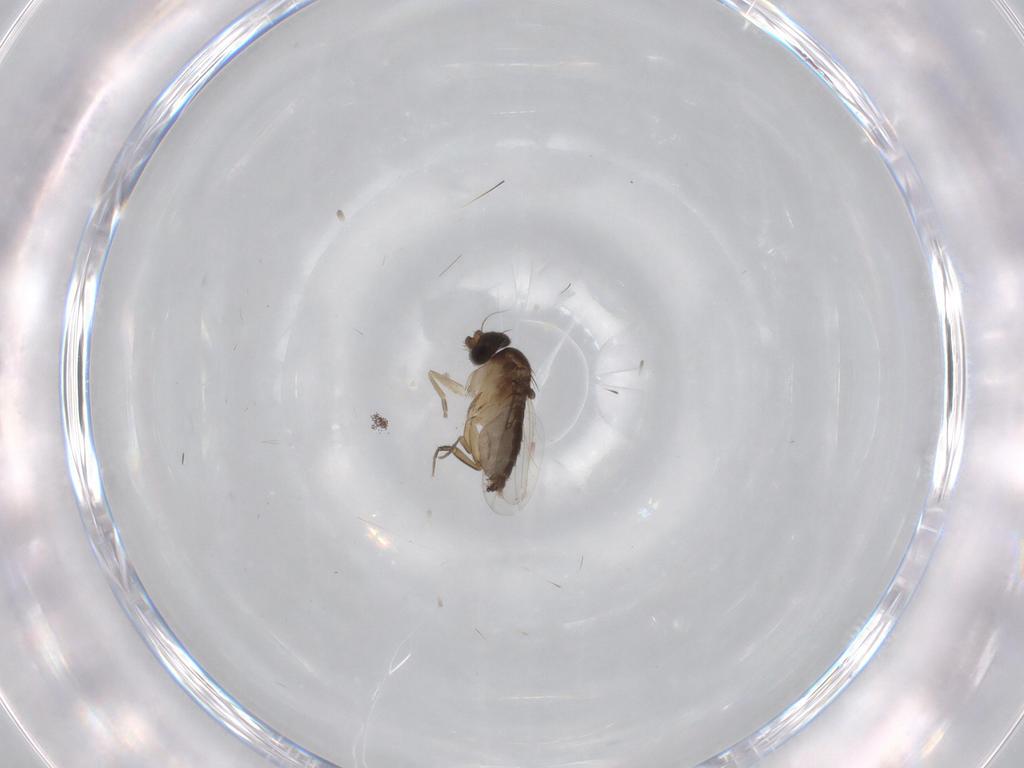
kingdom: Animalia
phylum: Arthropoda
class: Insecta
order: Diptera
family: Phoridae
